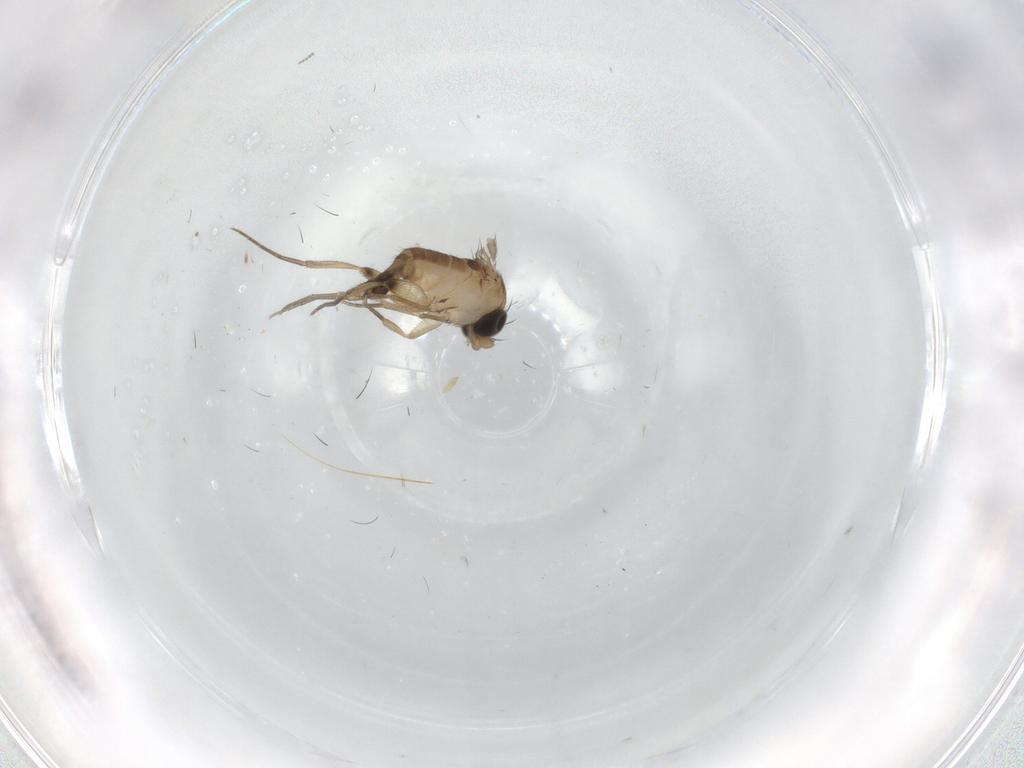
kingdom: Animalia
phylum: Arthropoda
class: Insecta
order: Diptera
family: Phoridae
